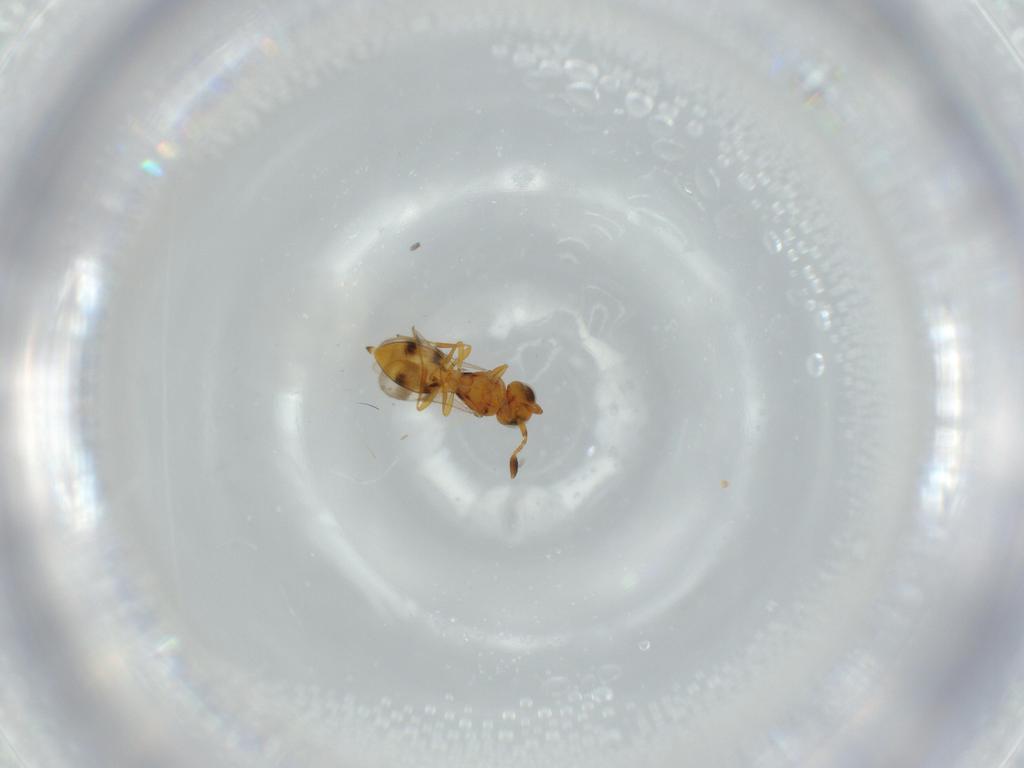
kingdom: Animalia
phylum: Arthropoda
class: Insecta
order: Hymenoptera
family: Scelionidae
